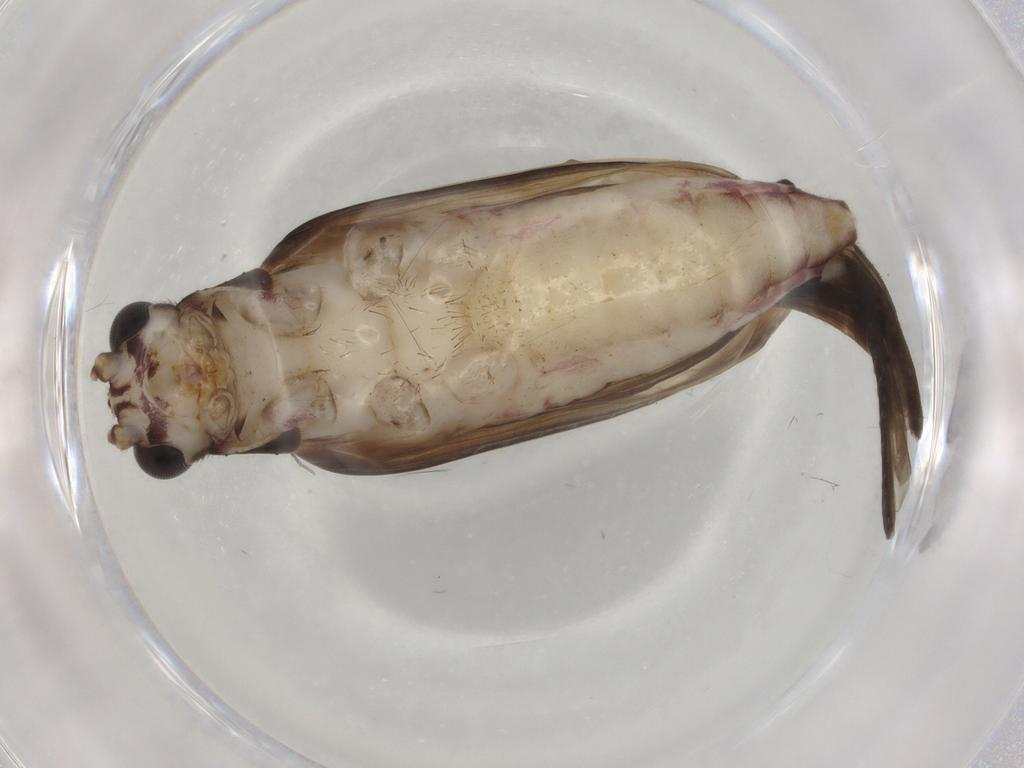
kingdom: Animalia
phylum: Arthropoda
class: Insecta
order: Orthoptera
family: Trigonidiidae
